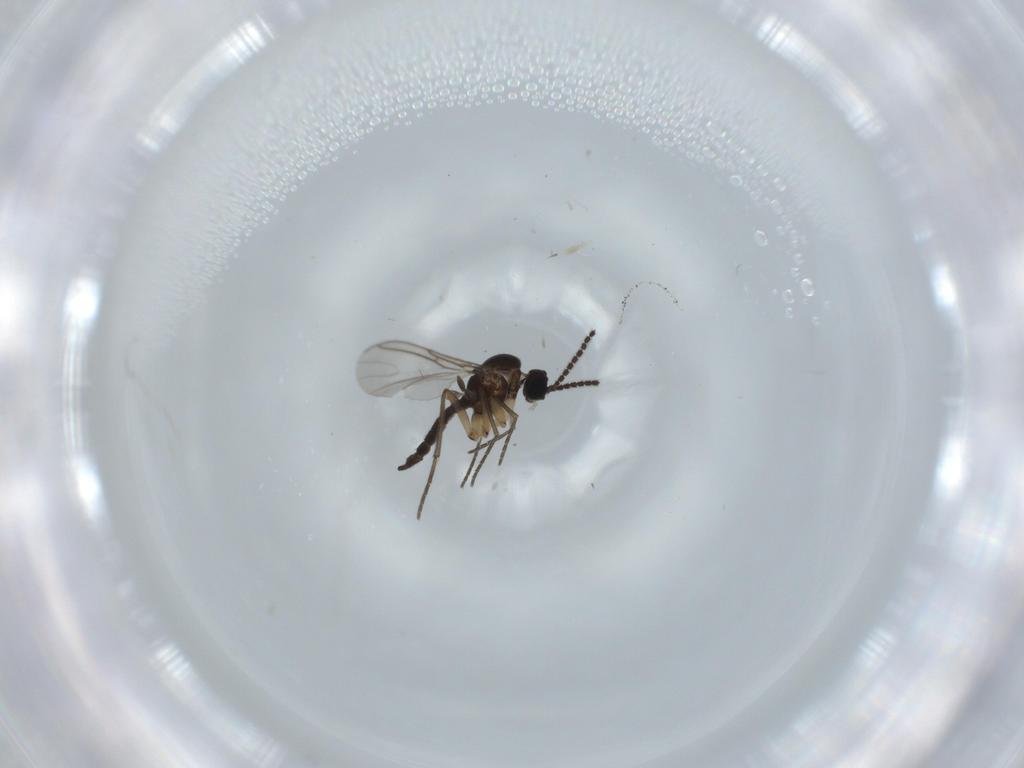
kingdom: Animalia
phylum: Arthropoda
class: Insecta
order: Diptera
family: Sciaridae
